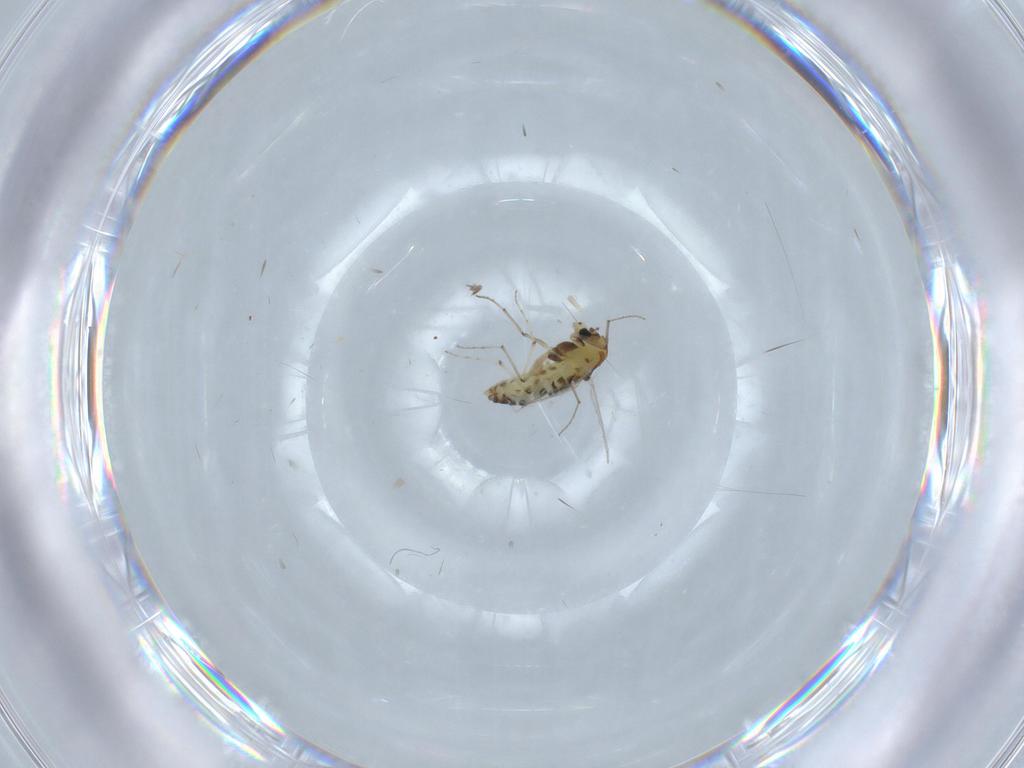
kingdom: Animalia
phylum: Arthropoda
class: Insecta
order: Diptera
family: Chironomidae
